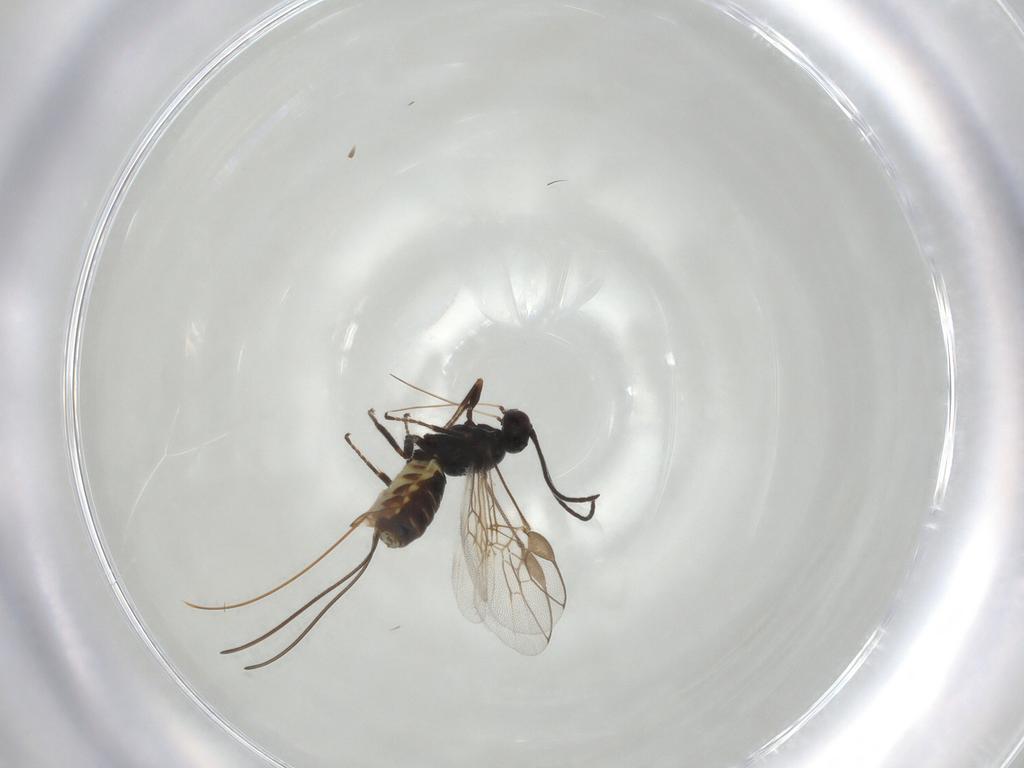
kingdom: Animalia
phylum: Arthropoda
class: Insecta
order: Hymenoptera
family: Braconidae
